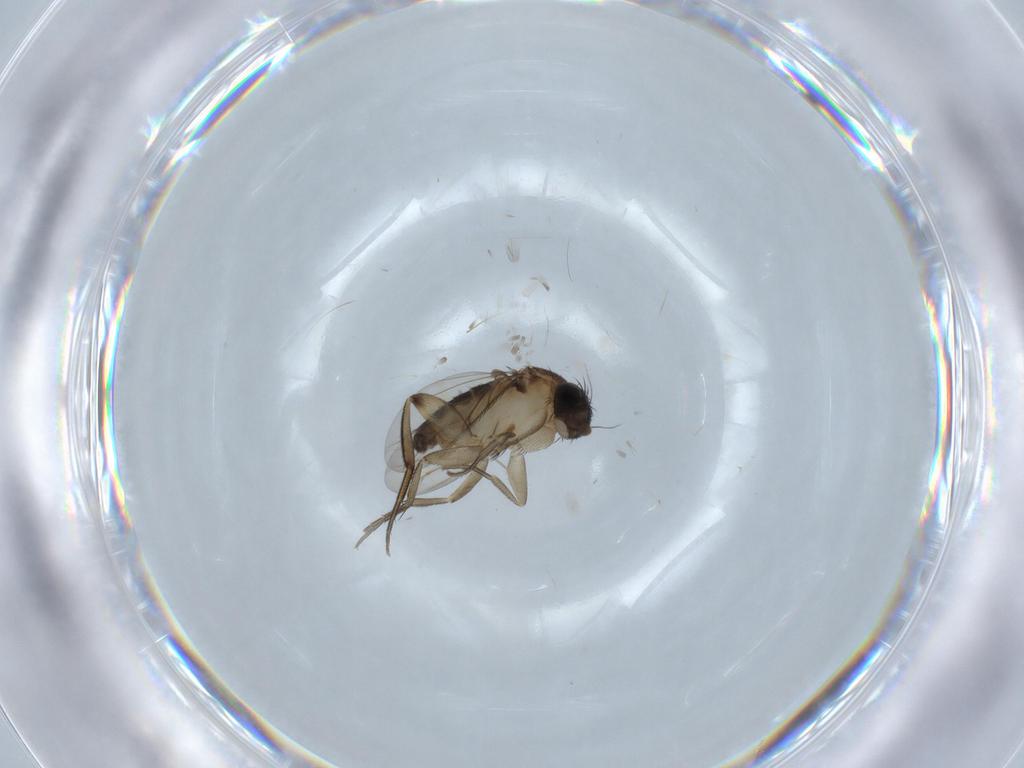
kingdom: Animalia
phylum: Arthropoda
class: Insecta
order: Diptera
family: Phoridae
